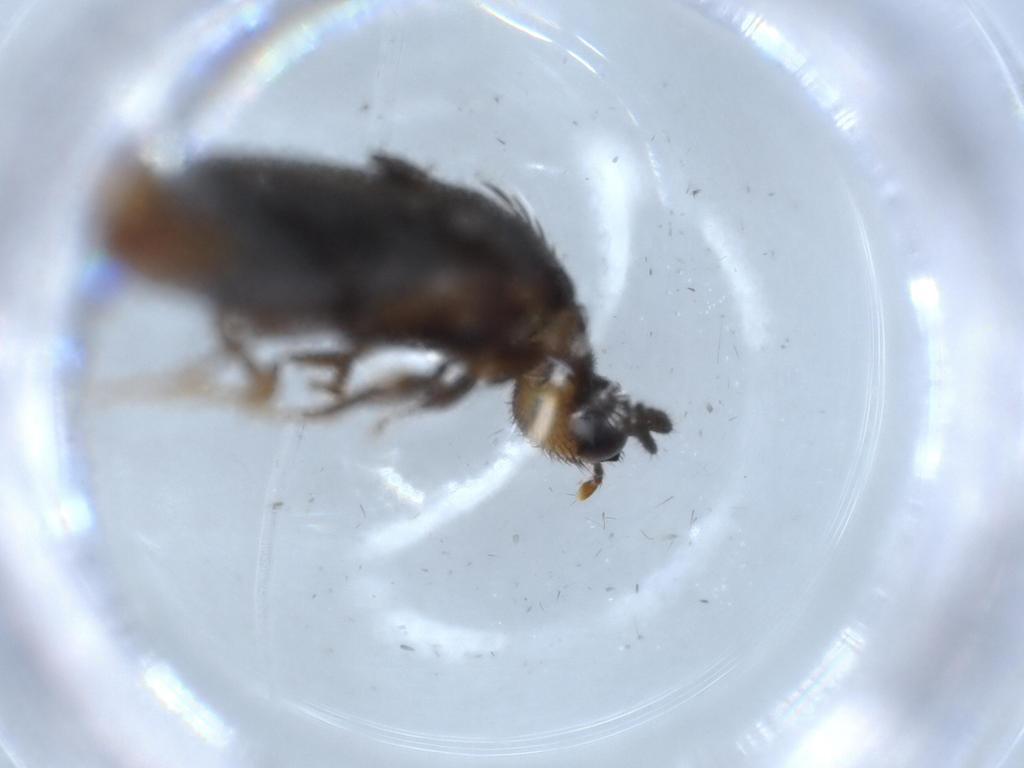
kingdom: Animalia
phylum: Arthropoda
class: Insecta
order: Coleoptera
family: Phengodidae
